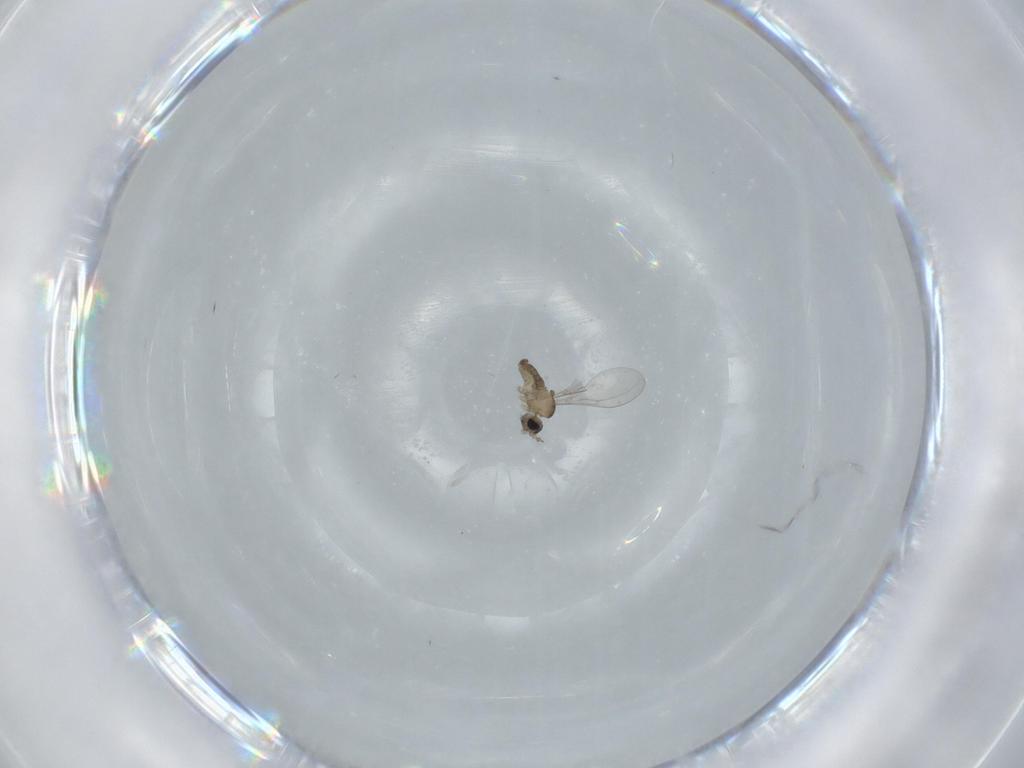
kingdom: Animalia
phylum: Arthropoda
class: Insecta
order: Diptera
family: Cecidomyiidae
